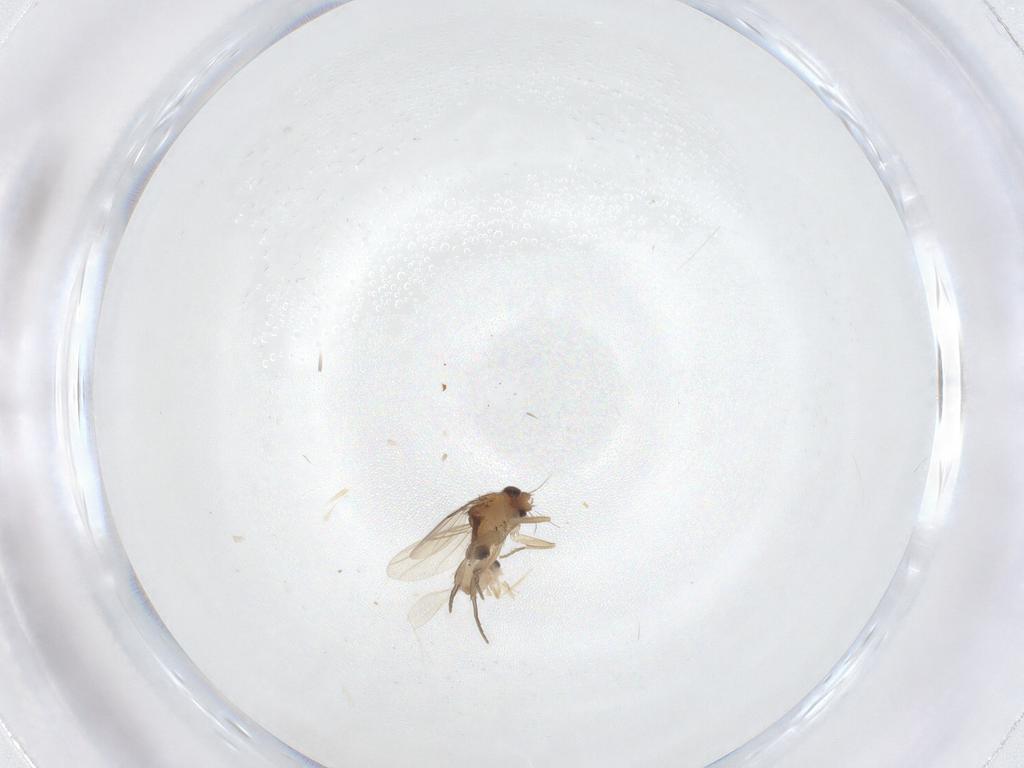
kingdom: Animalia
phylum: Arthropoda
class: Insecta
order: Diptera
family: Phoridae
